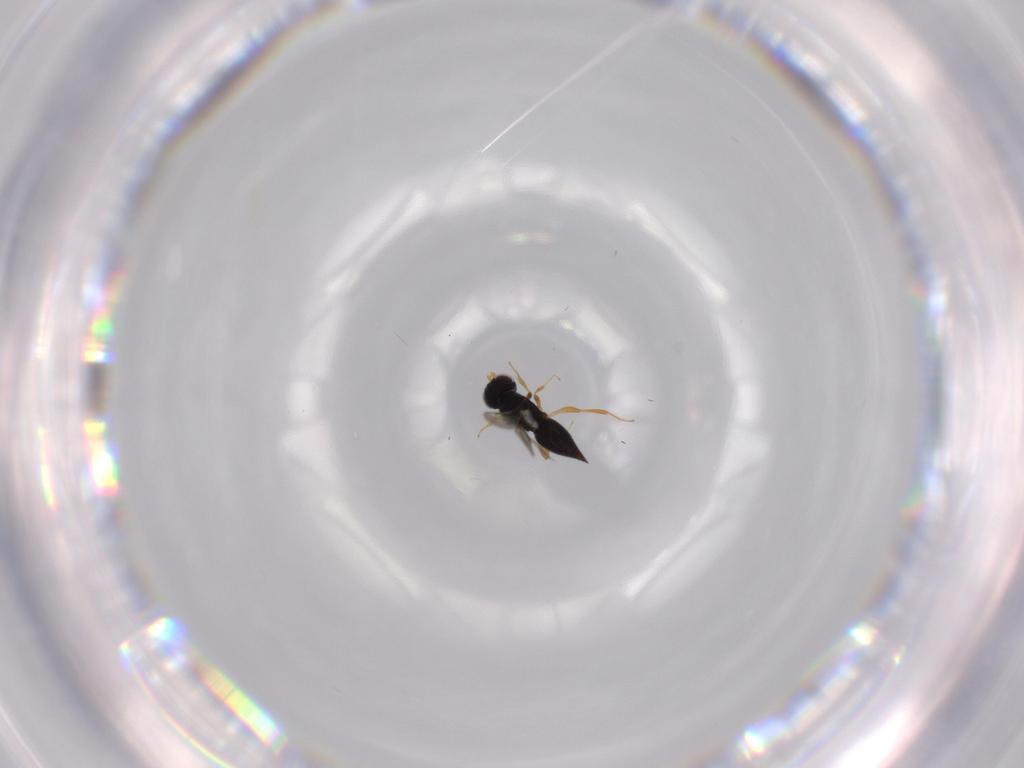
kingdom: Animalia
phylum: Arthropoda
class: Insecta
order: Hymenoptera
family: Ceraphronidae
